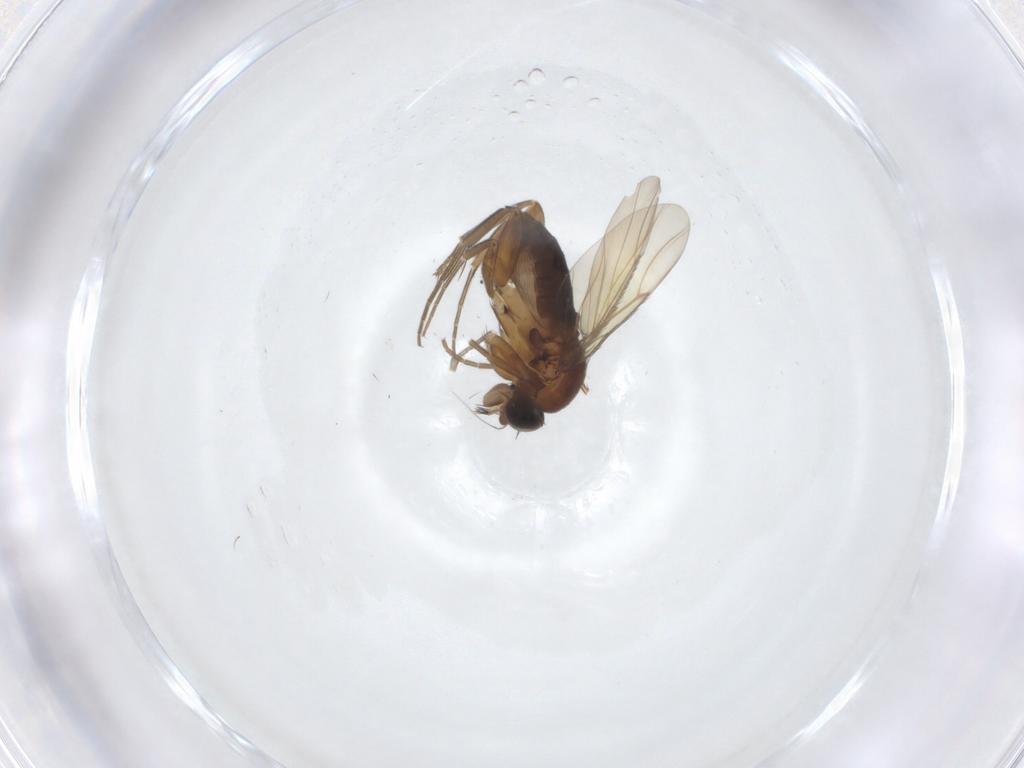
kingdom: Animalia
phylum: Arthropoda
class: Insecta
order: Diptera
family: Phoridae
